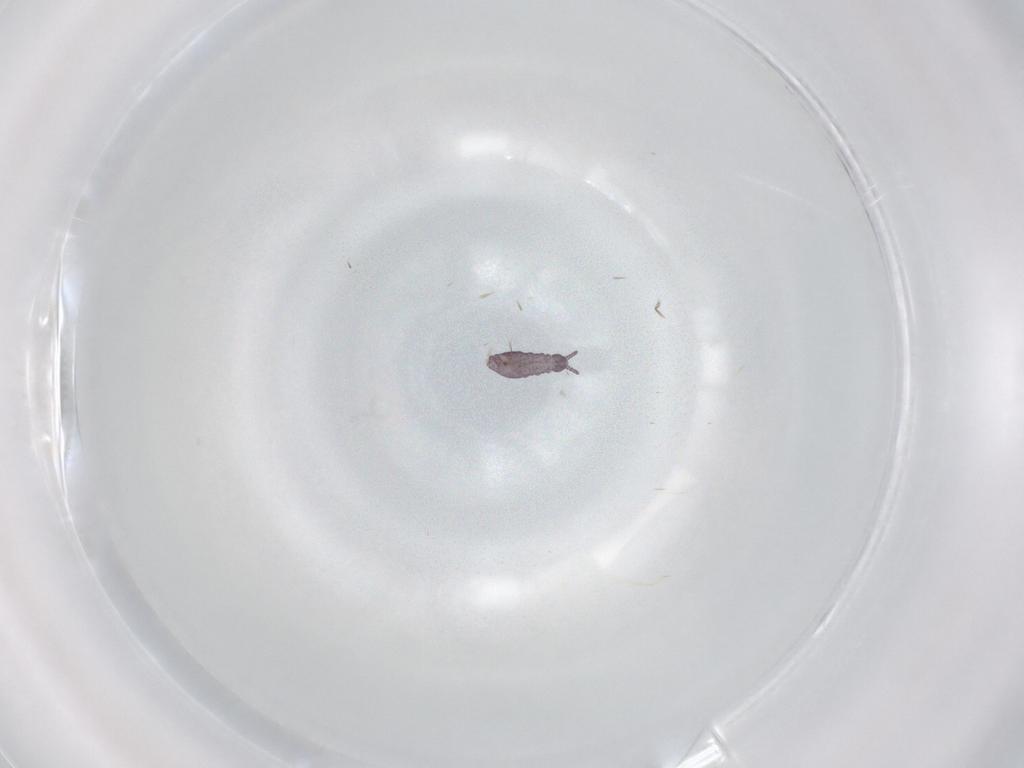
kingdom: Animalia
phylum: Arthropoda
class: Collembola
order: Poduromorpha
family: Brachystomellidae
